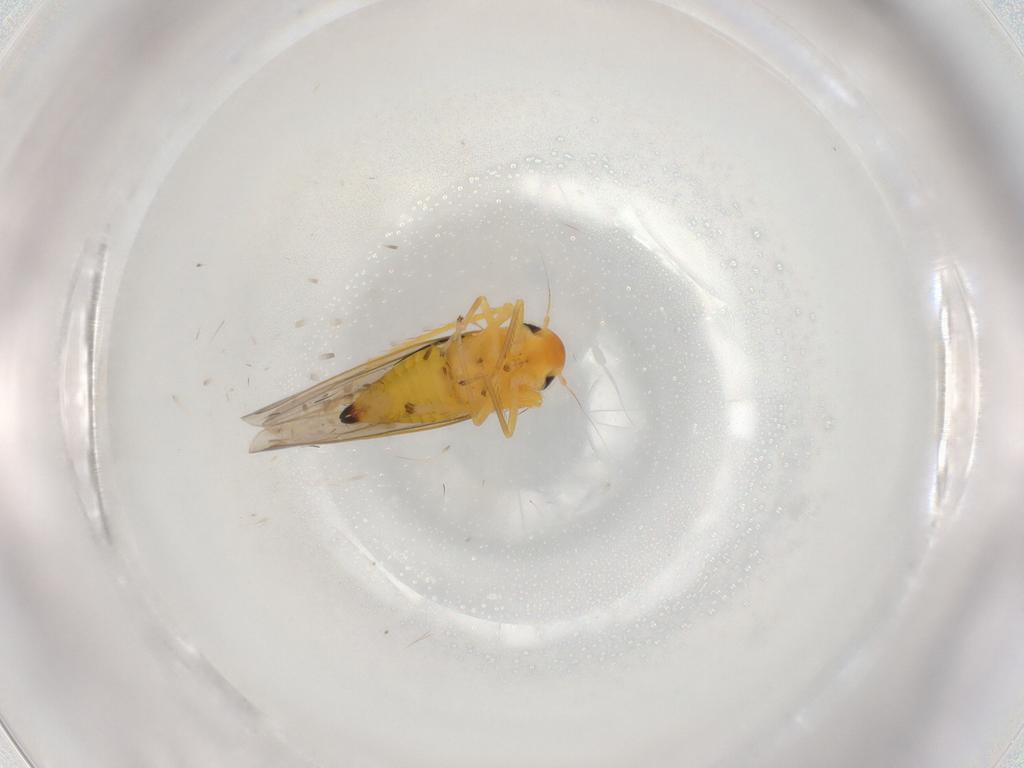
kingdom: Animalia
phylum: Arthropoda
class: Insecta
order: Hemiptera
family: Cicadellidae
